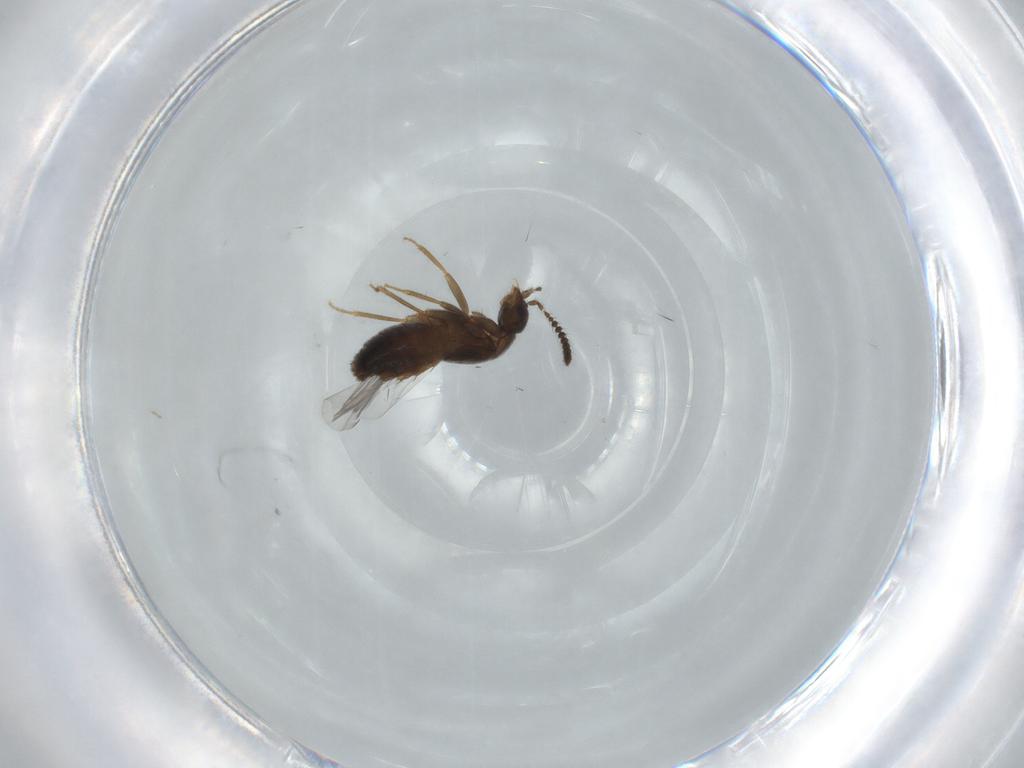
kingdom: Animalia
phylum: Arthropoda
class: Insecta
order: Coleoptera
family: Staphylinidae
